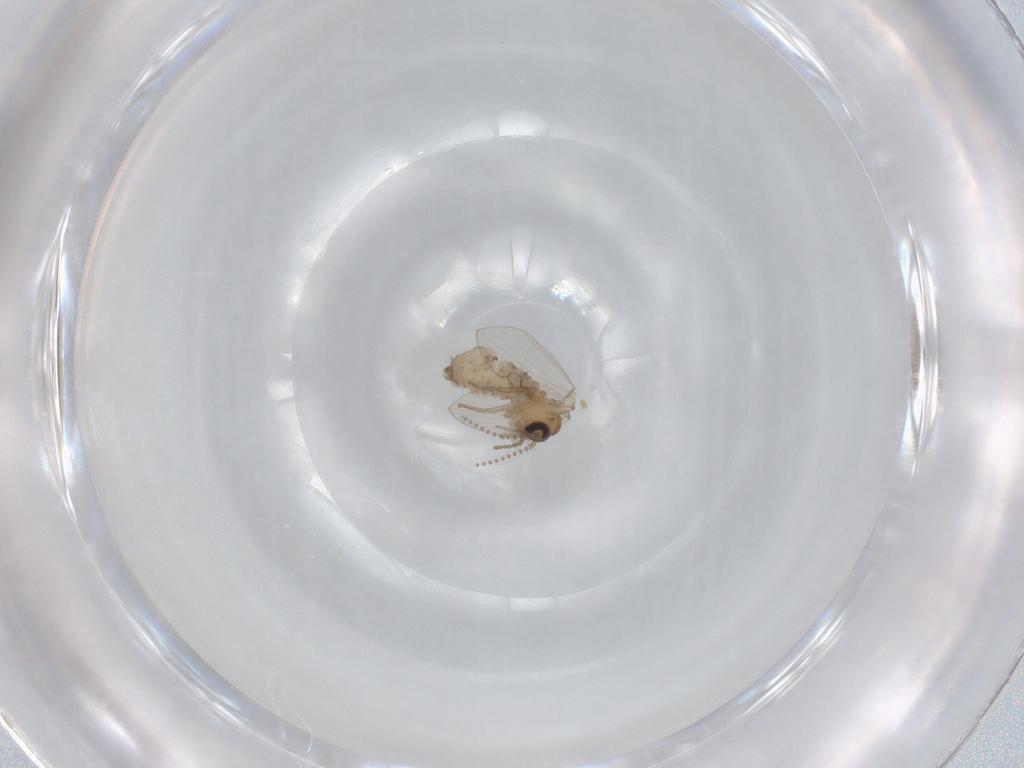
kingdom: Animalia
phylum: Arthropoda
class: Insecta
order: Diptera
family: Psychodidae
